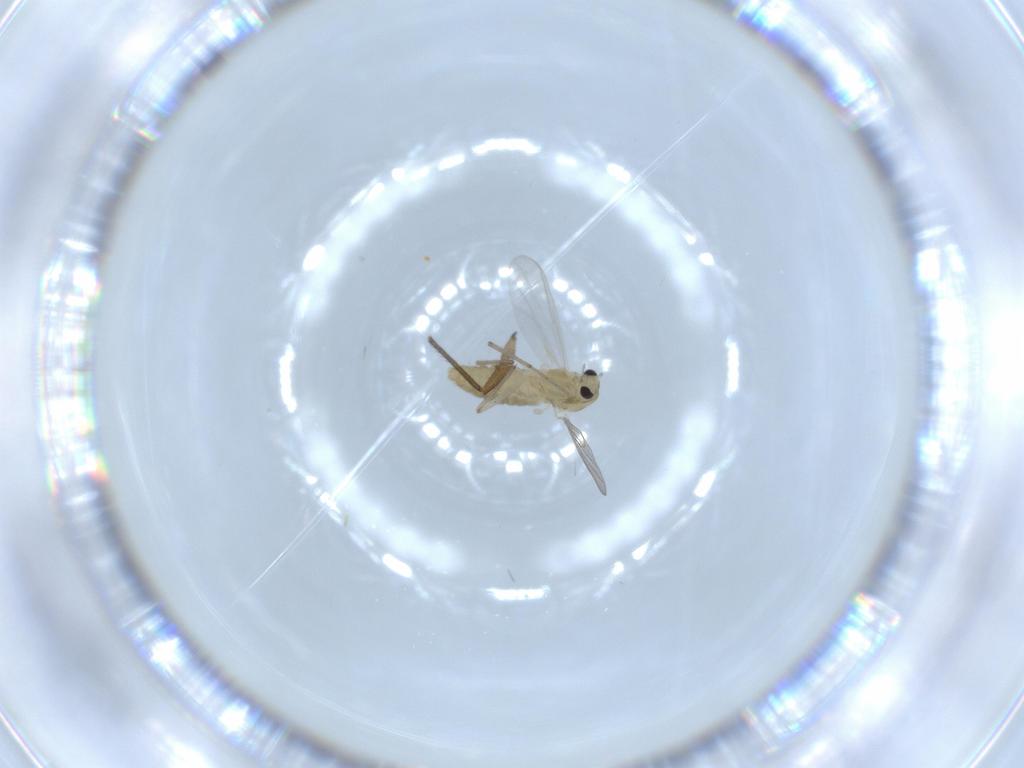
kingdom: Animalia
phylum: Arthropoda
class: Insecta
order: Diptera
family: Chironomidae
